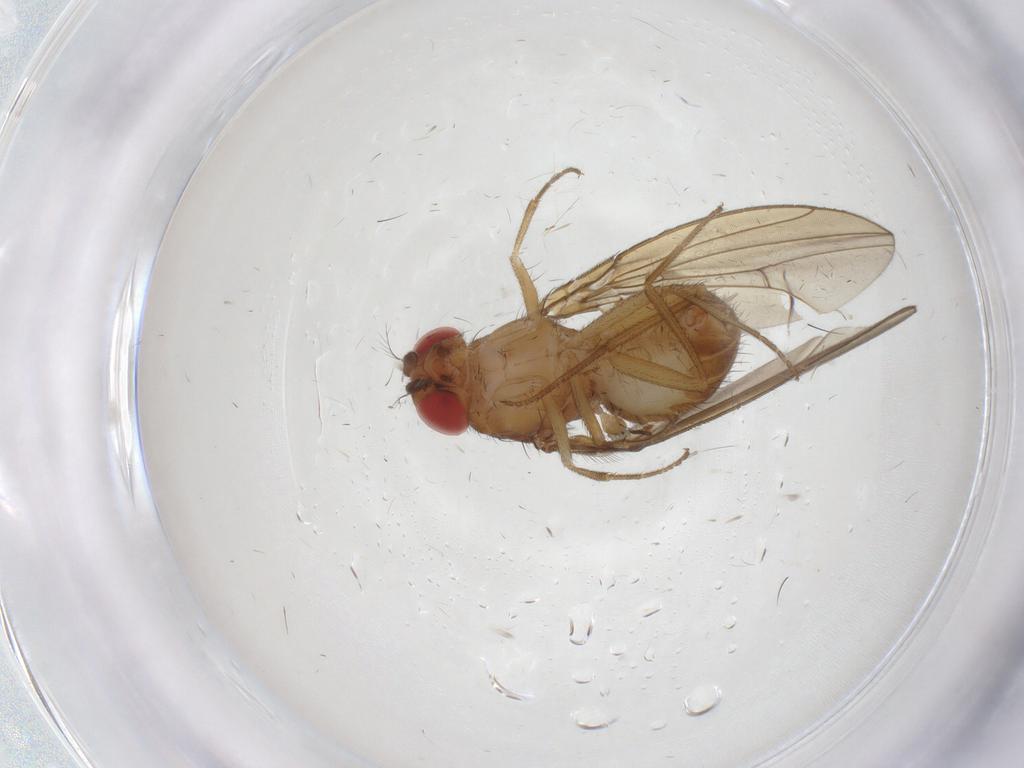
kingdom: Animalia
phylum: Arthropoda
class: Insecta
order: Diptera
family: Drosophilidae
